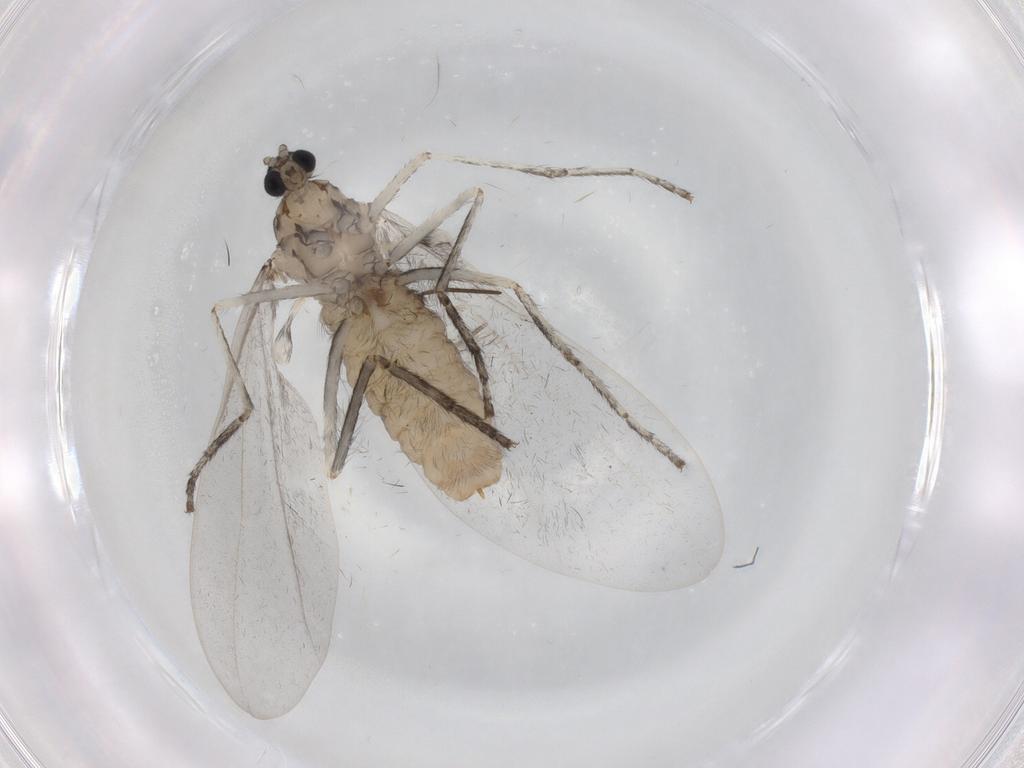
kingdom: Animalia
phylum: Arthropoda
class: Insecta
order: Diptera
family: Cecidomyiidae
